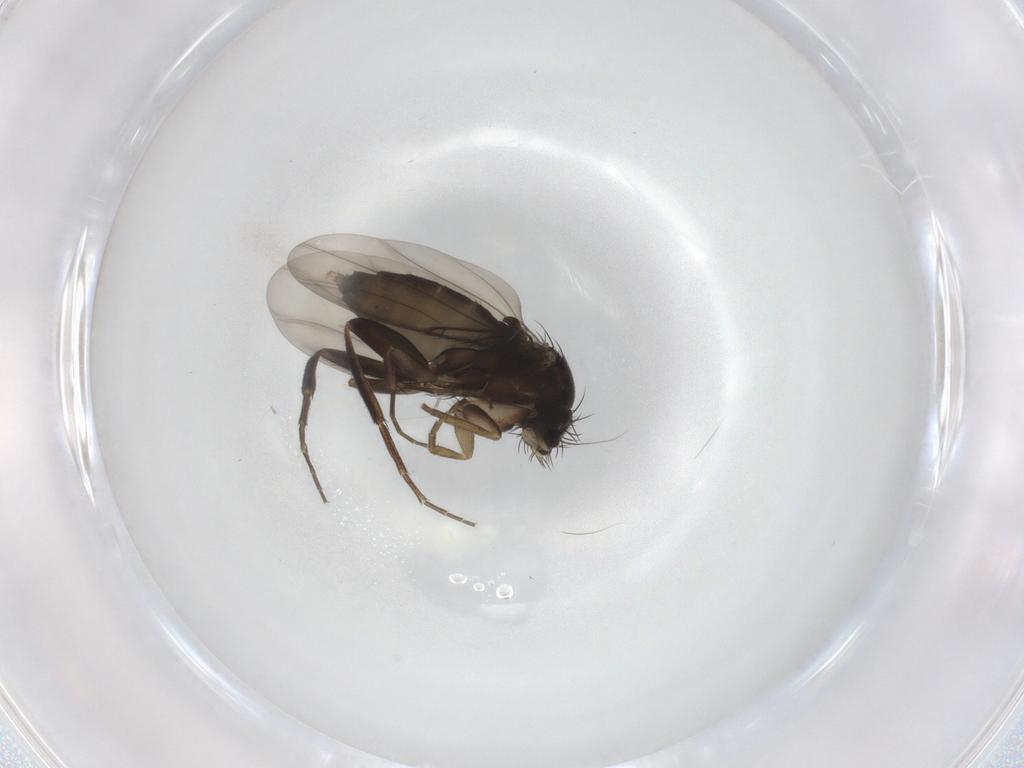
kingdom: Animalia
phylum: Arthropoda
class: Insecta
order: Diptera
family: Phoridae
